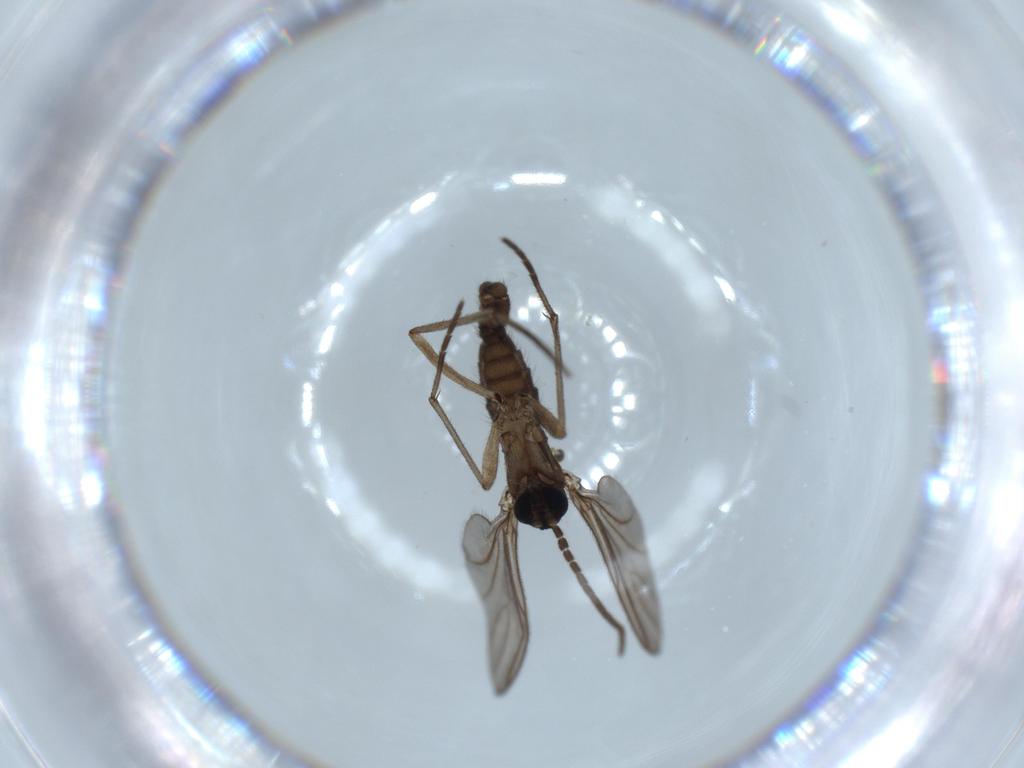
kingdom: Animalia
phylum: Arthropoda
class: Insecta
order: Diptera
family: Sciaridae
